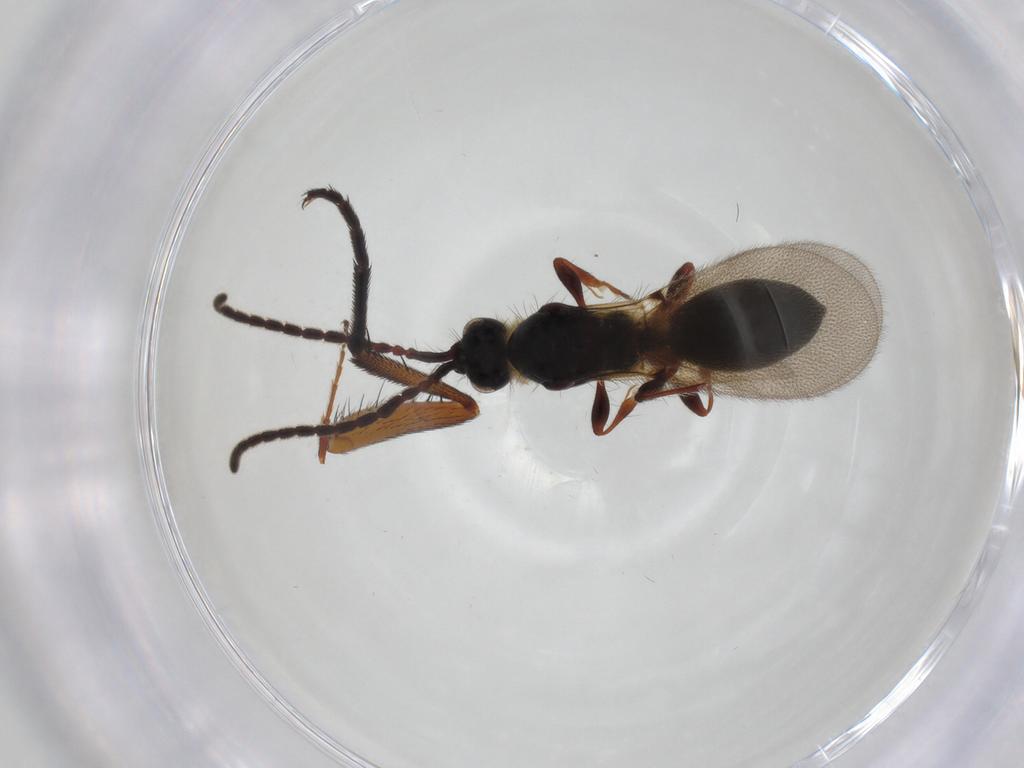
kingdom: Animalia
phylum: Arthropoda
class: Insecta
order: Hymenoptera
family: Diapriidae
